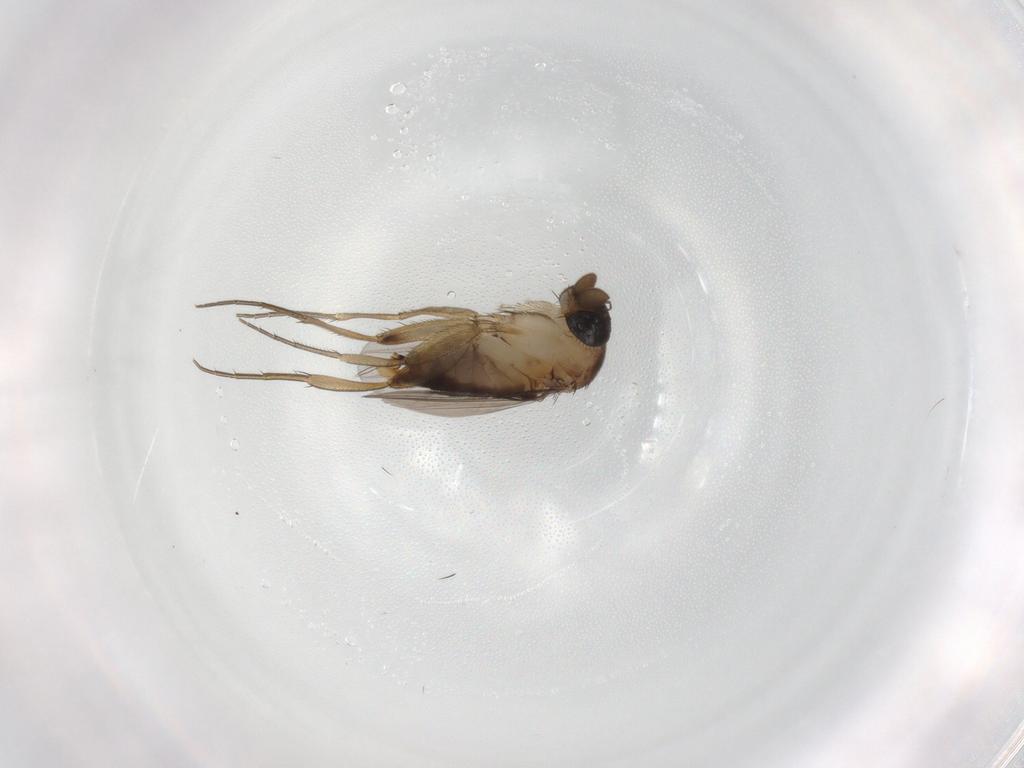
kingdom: Animalia
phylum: Arthropoda
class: Insecta
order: Diptera
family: Phoridae
